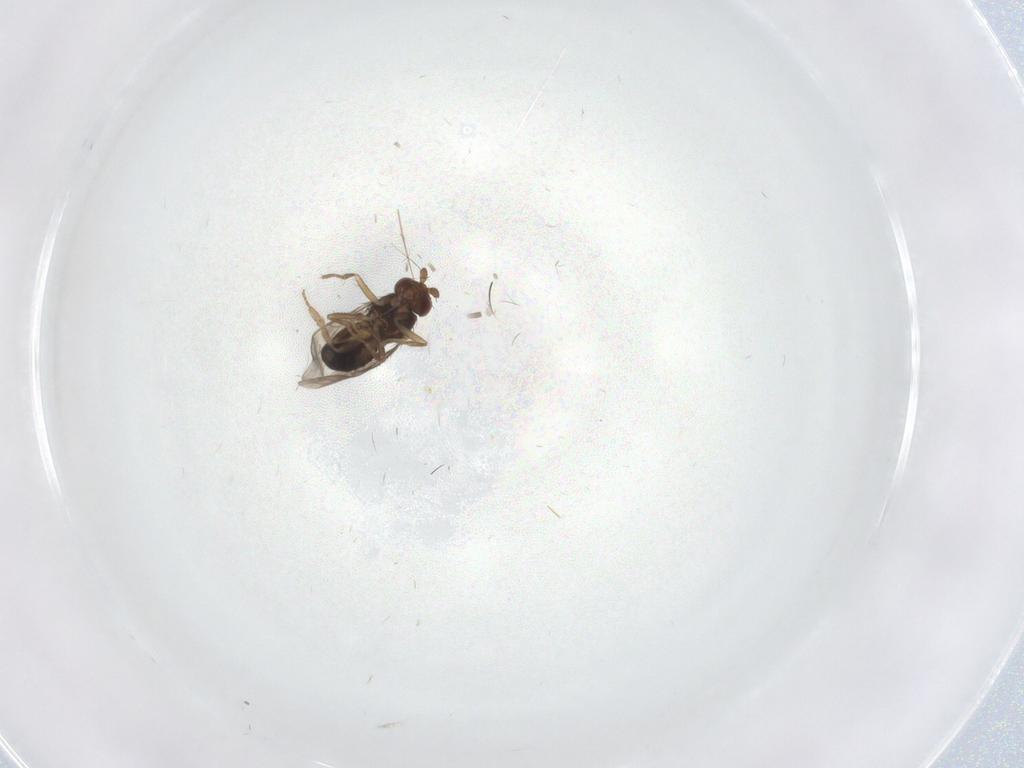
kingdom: Animalia
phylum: Arthropoda
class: Insecta
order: Diptera
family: Sphaeroceridae
